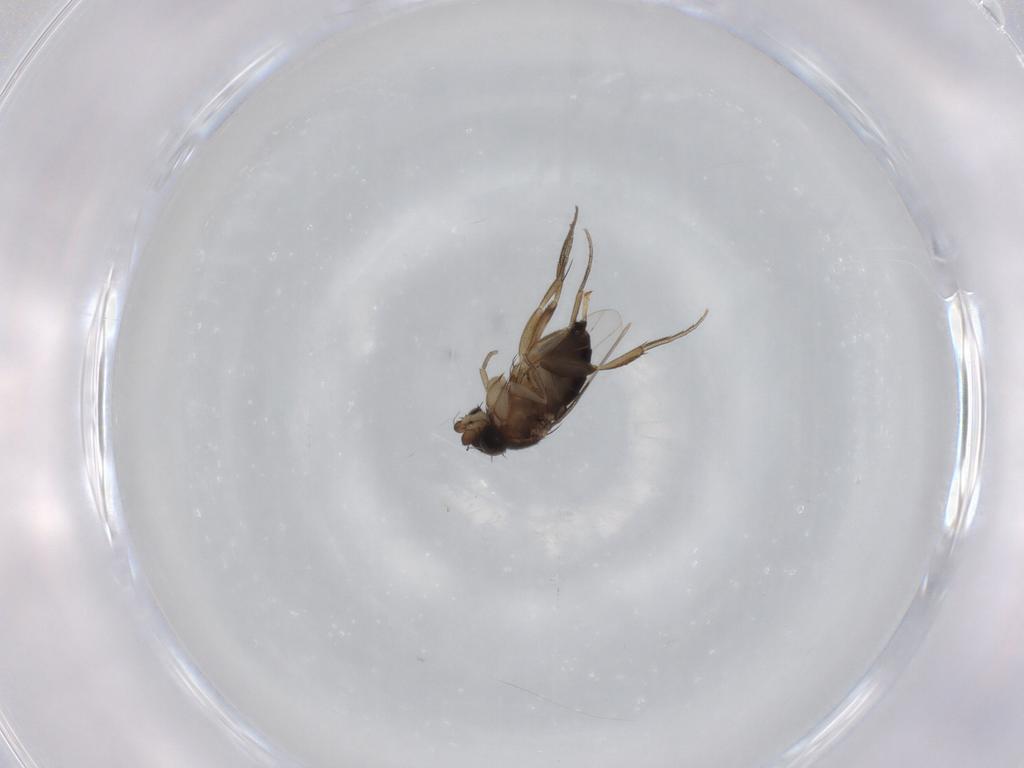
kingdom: Animalia
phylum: Arthropoda
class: Insecta
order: Diptera
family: Phoridae
